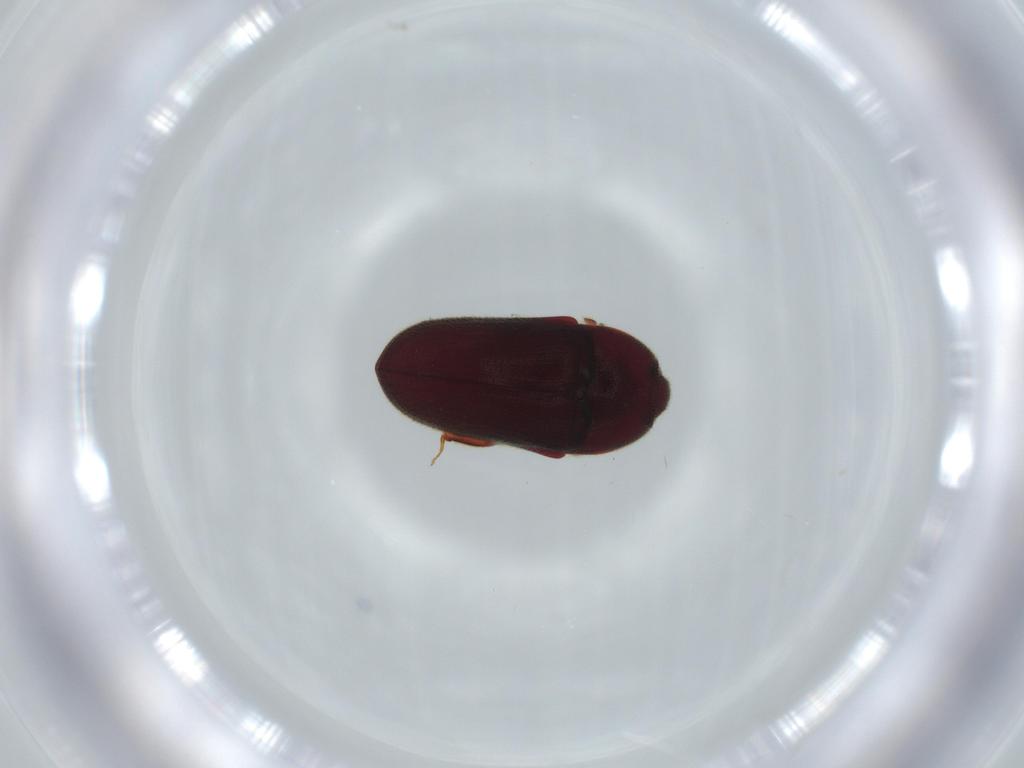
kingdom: Animalia
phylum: Arthropoda
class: Insecta
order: Coleoptera
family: Throscidae
